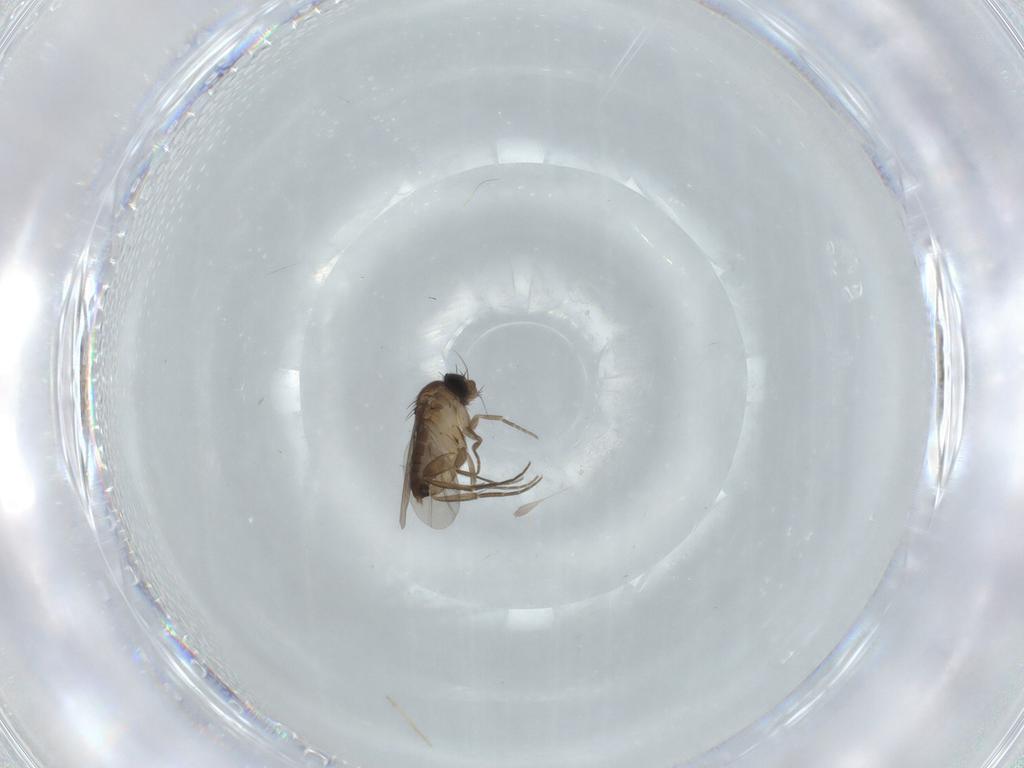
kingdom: Animalia
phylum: Arthropoda
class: Insecta
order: Diptera
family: Phoridae
